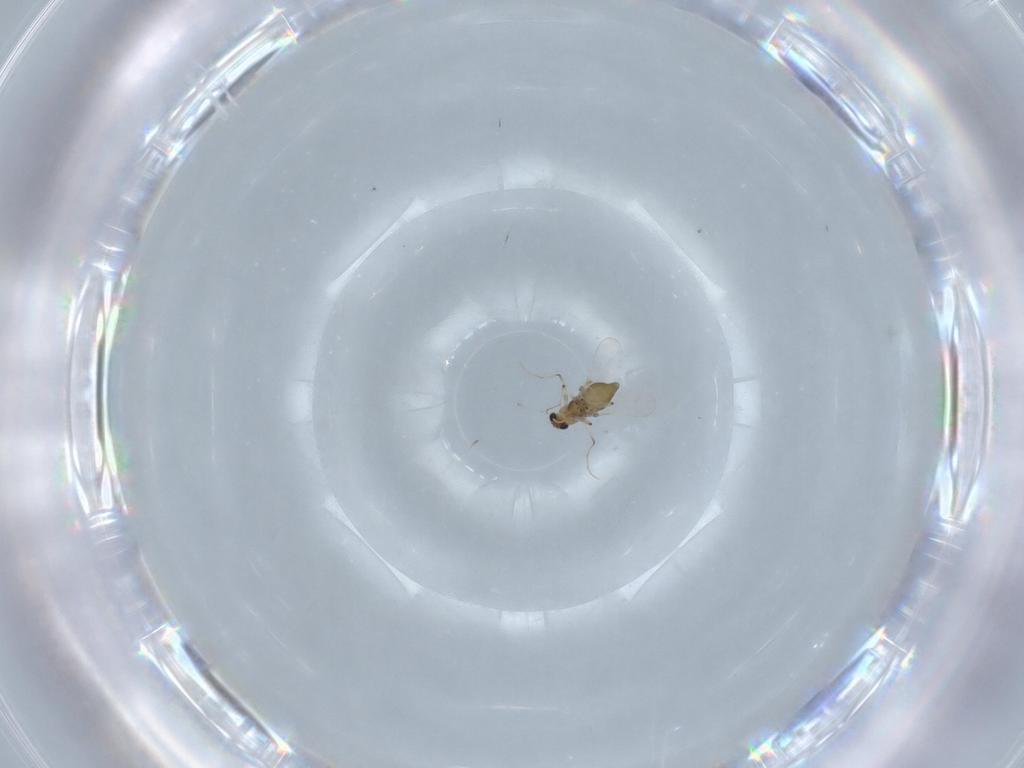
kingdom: Animalia
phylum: Arthropoda
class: Insecta
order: Diptera
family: Chironomidae
